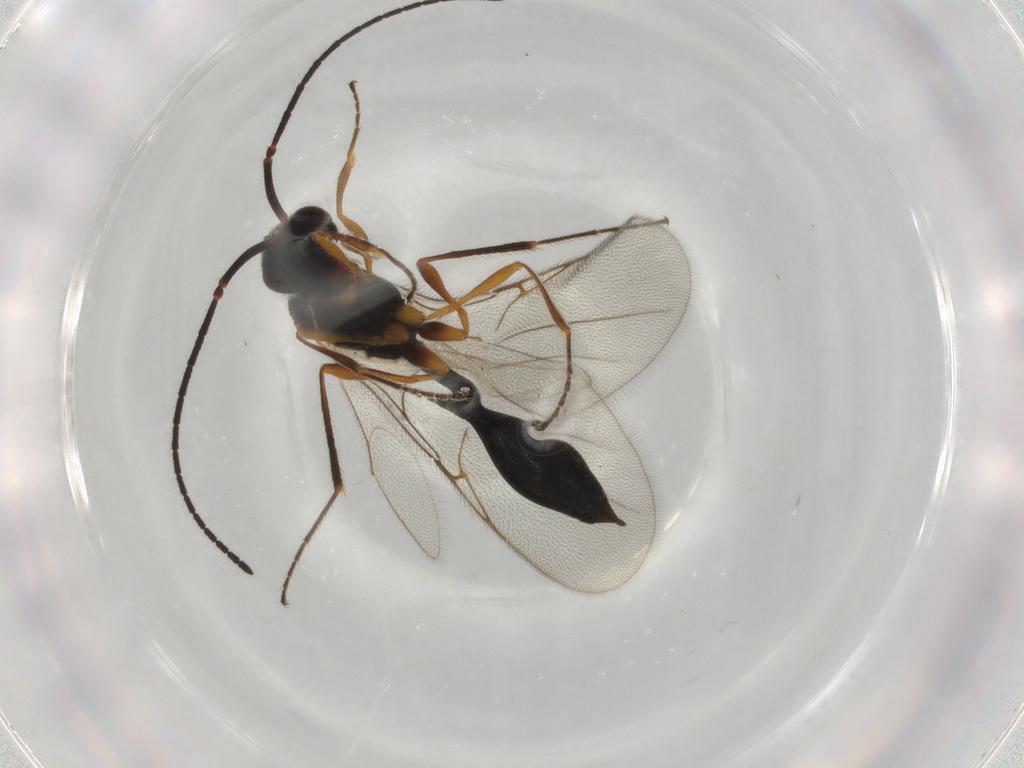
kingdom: Animalia
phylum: Arthropoda
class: Insecta
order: Hymenoptera
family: Diapriidae
